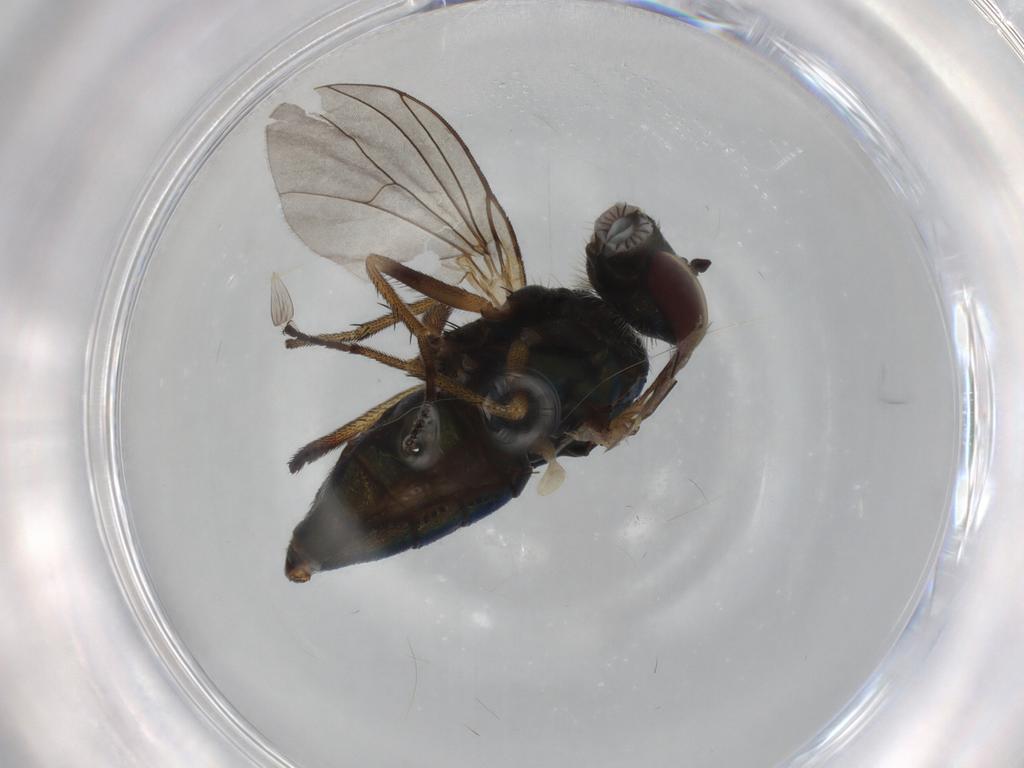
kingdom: Animalia
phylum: Arthropoda
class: Insecta
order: Diptera
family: Dolichopodidae
